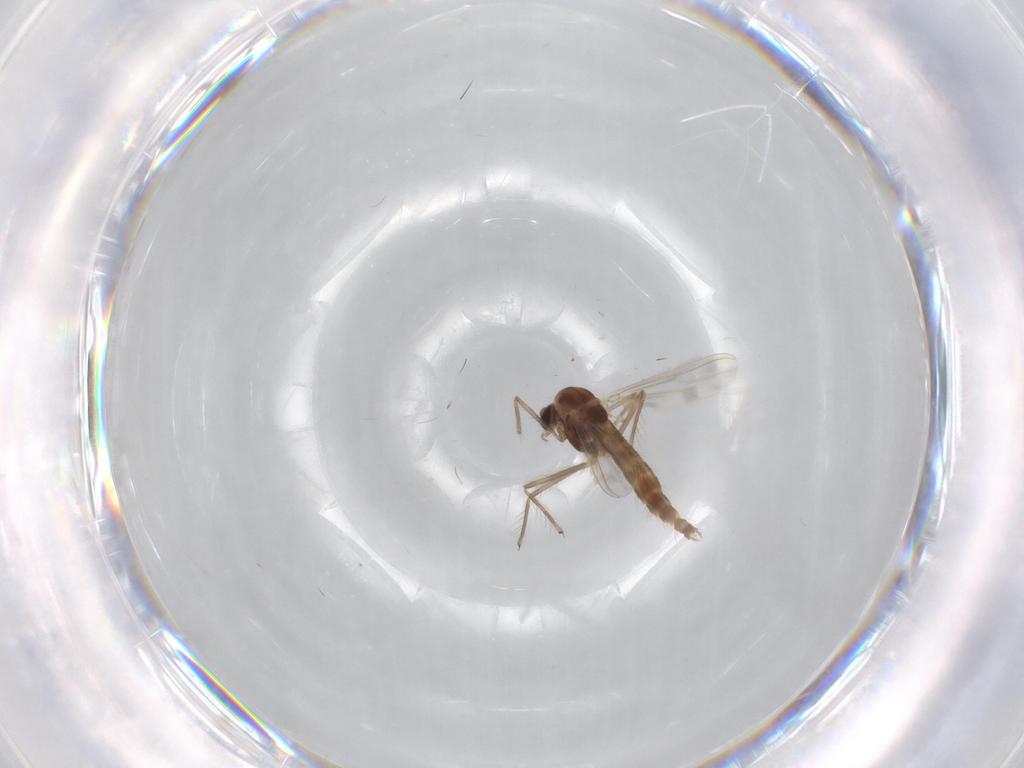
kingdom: Animalia
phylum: Arthropoda
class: Insecta
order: Diptera
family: Chironomidae
